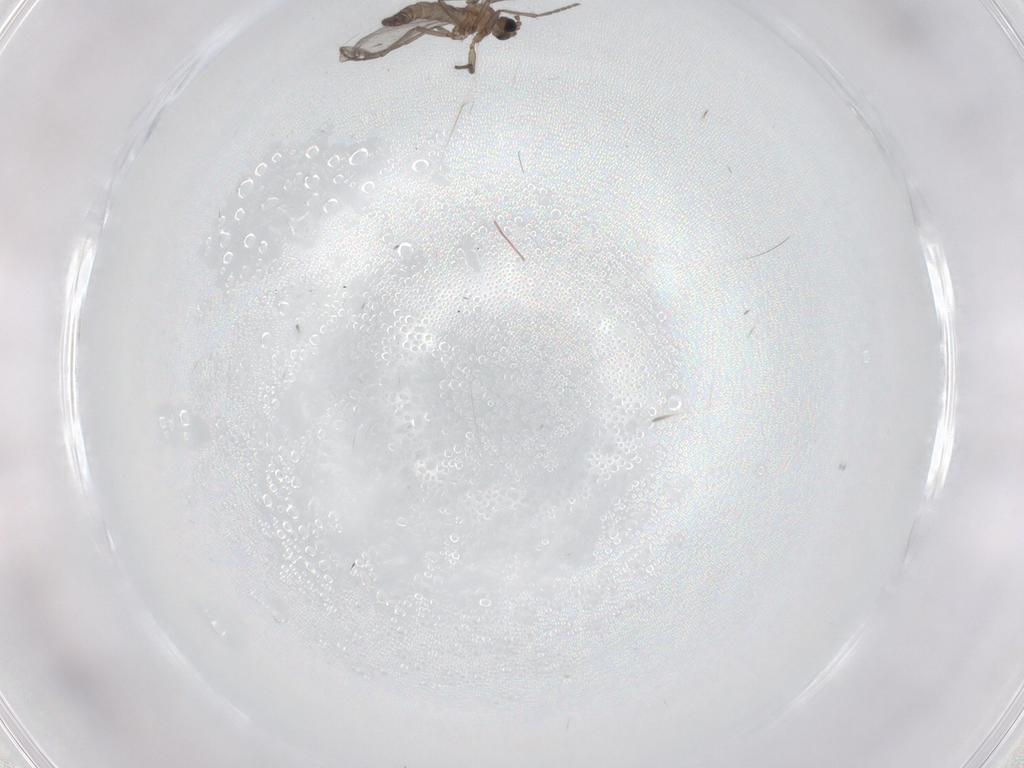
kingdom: Animalia
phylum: Arthropoda
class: Insecta
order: Diptera
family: Sciaridae
